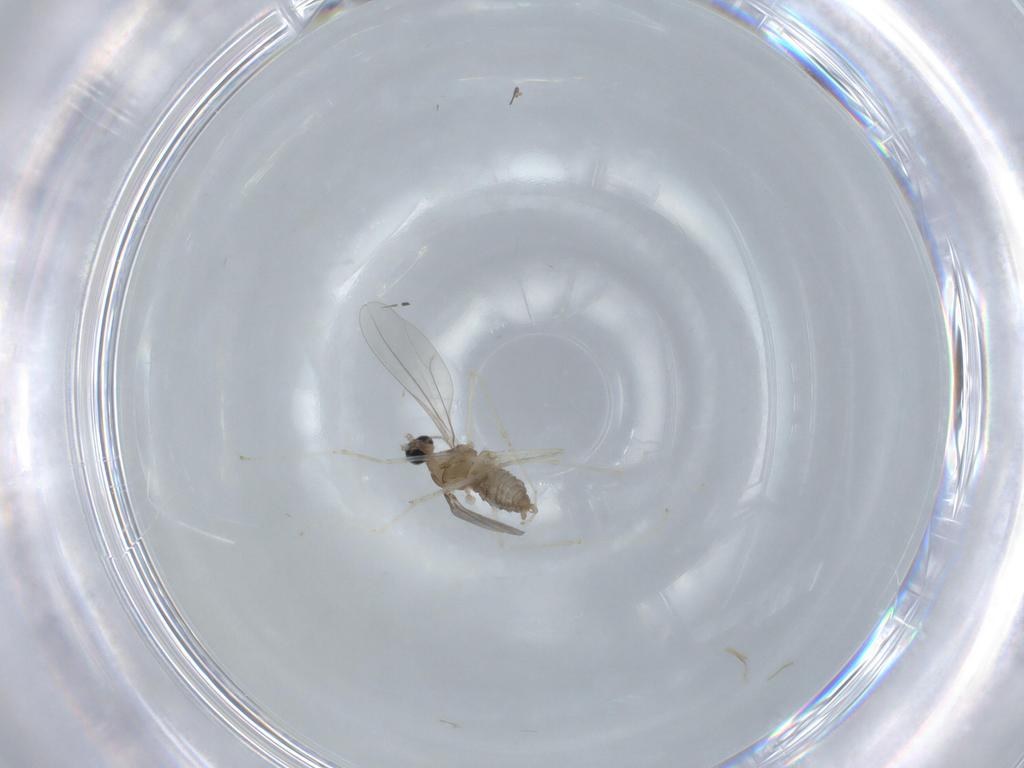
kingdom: Animalia
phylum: Arthropoda
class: Insecta
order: Diptera
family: Cecidomyiidae
